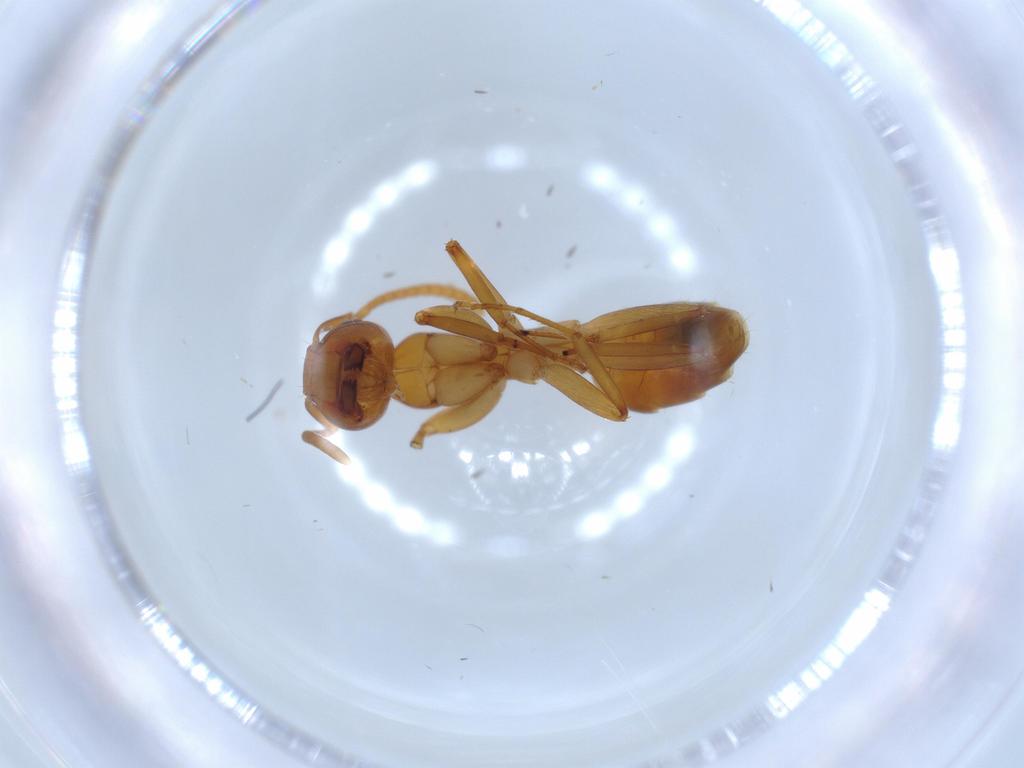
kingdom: Animalia
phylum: Arthropoda
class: Insecta
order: Hymenoptera
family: Formicidae
